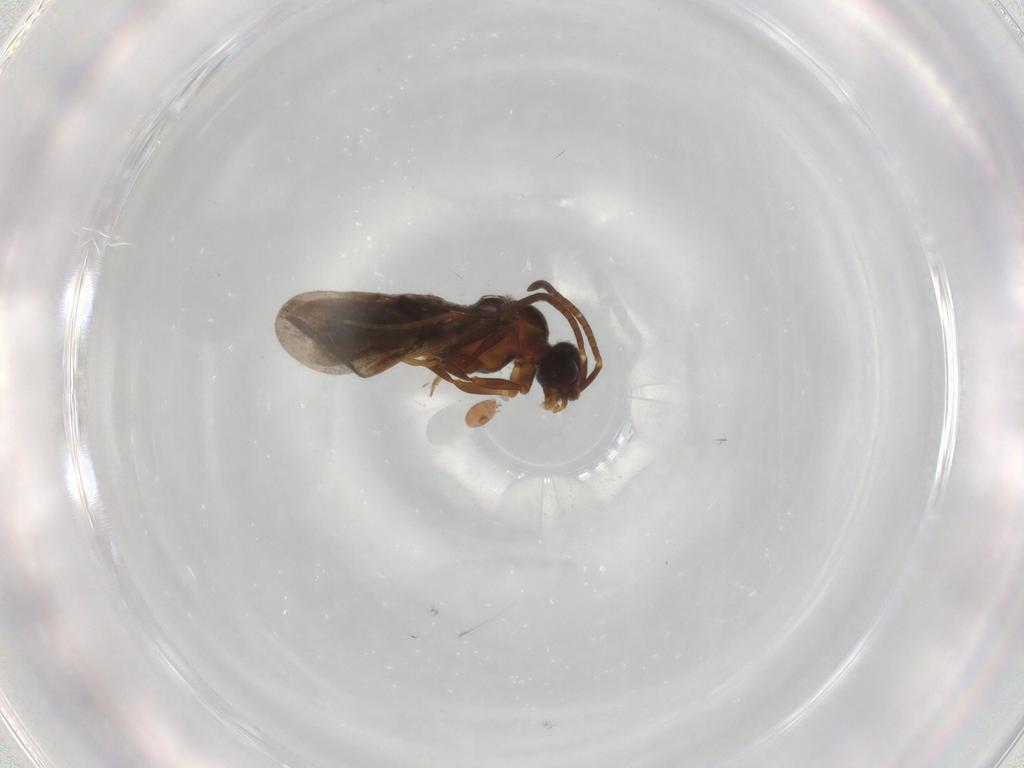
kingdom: Animalia
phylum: Arthropoda
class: Insecta
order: Hymenoptera
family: Formicidae
